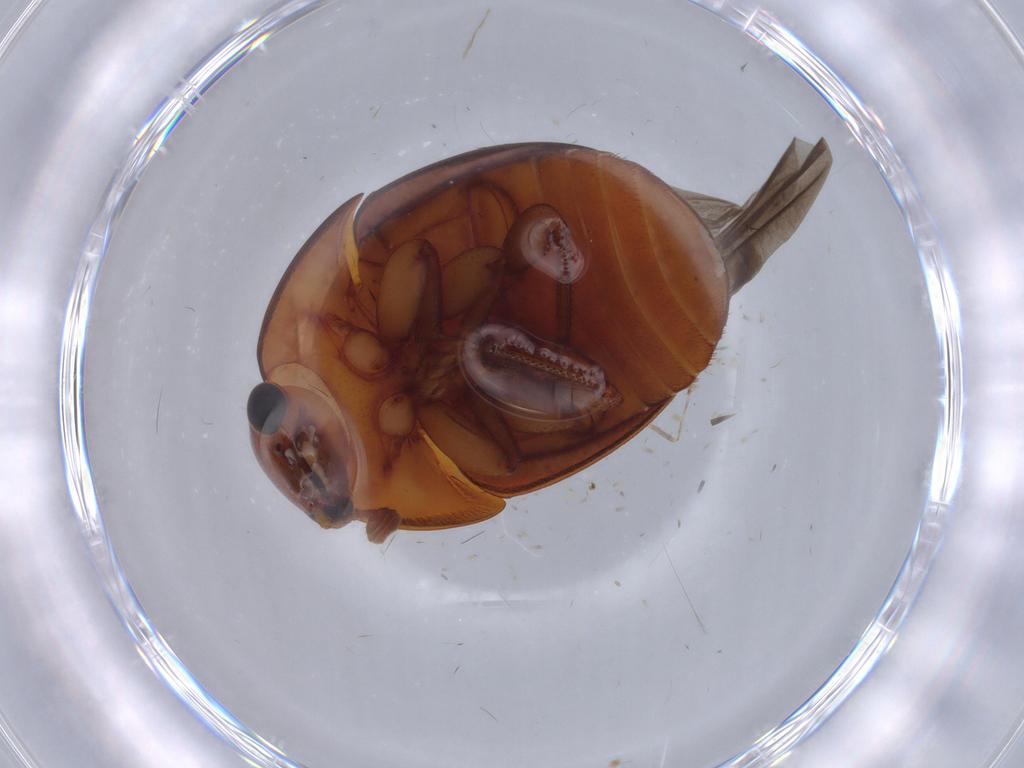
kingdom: Animalia
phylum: Arthropoda
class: Insecta
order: Coleoptera
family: Nitidulidae
